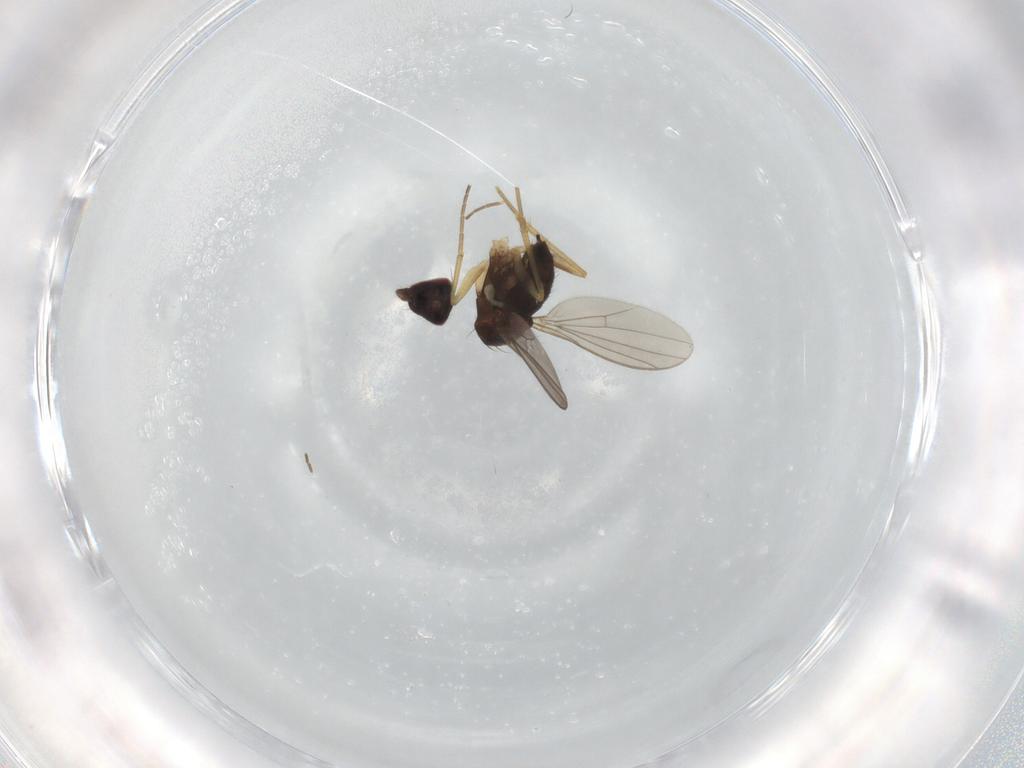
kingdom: Animalia
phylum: Arthropoda
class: Insecta
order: Diptera
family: Dolichopodidae
